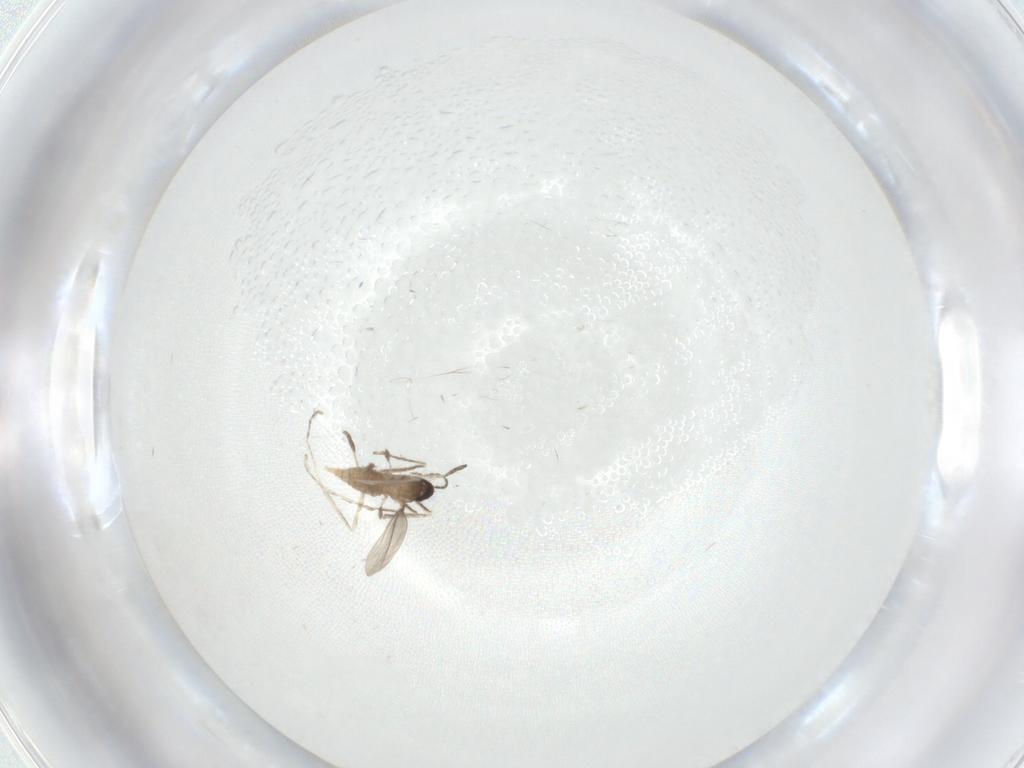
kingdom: Animalia
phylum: Arthropoda
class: Insecta
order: Diptera
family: Cecidomyiidae
